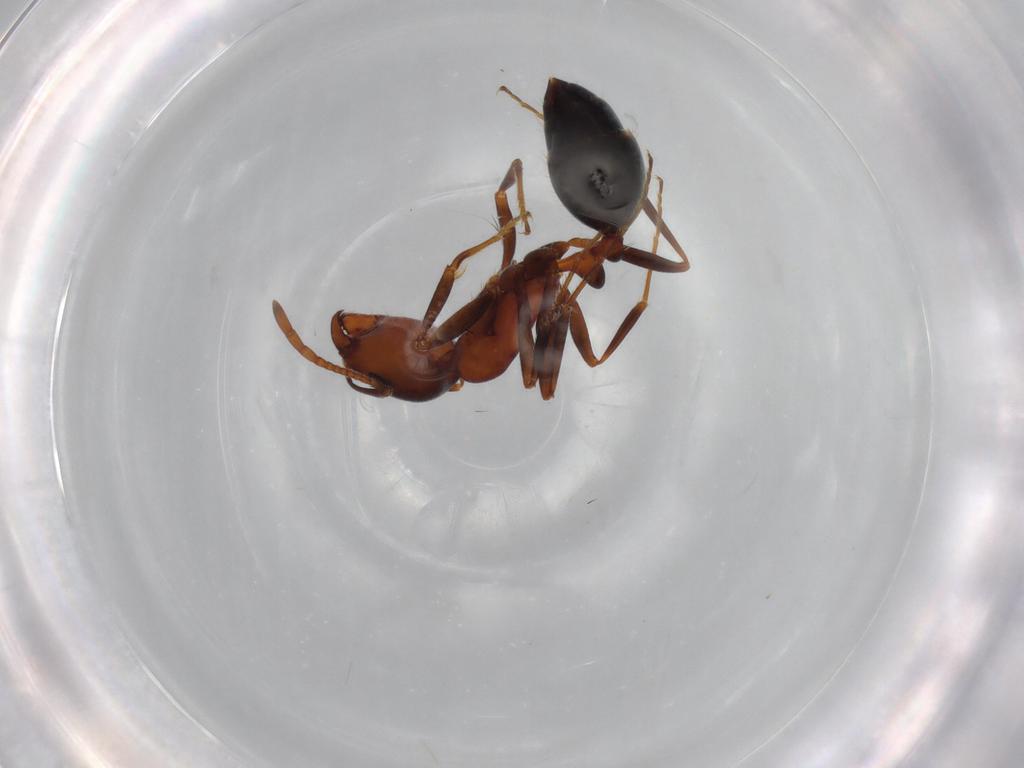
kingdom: Animalia
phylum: Arthropoda
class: Insecta
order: Hymenoptera
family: Formicidae
